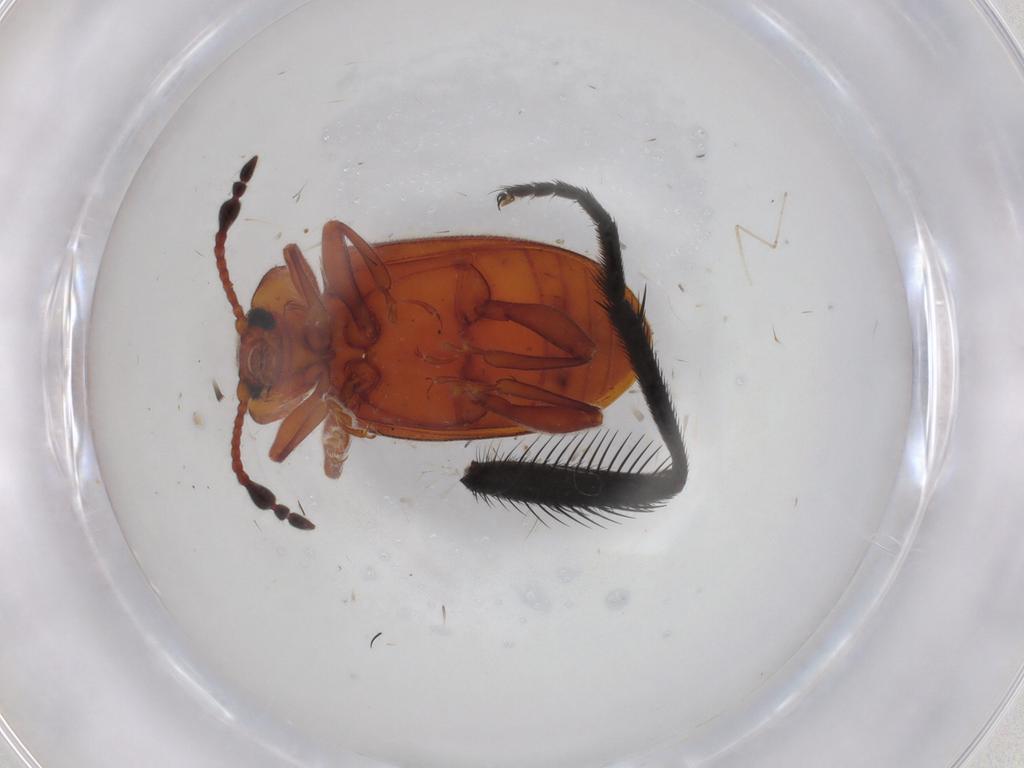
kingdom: Animalia
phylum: Arthropoda
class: Insecta
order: Coleoptera
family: Endomychidae
